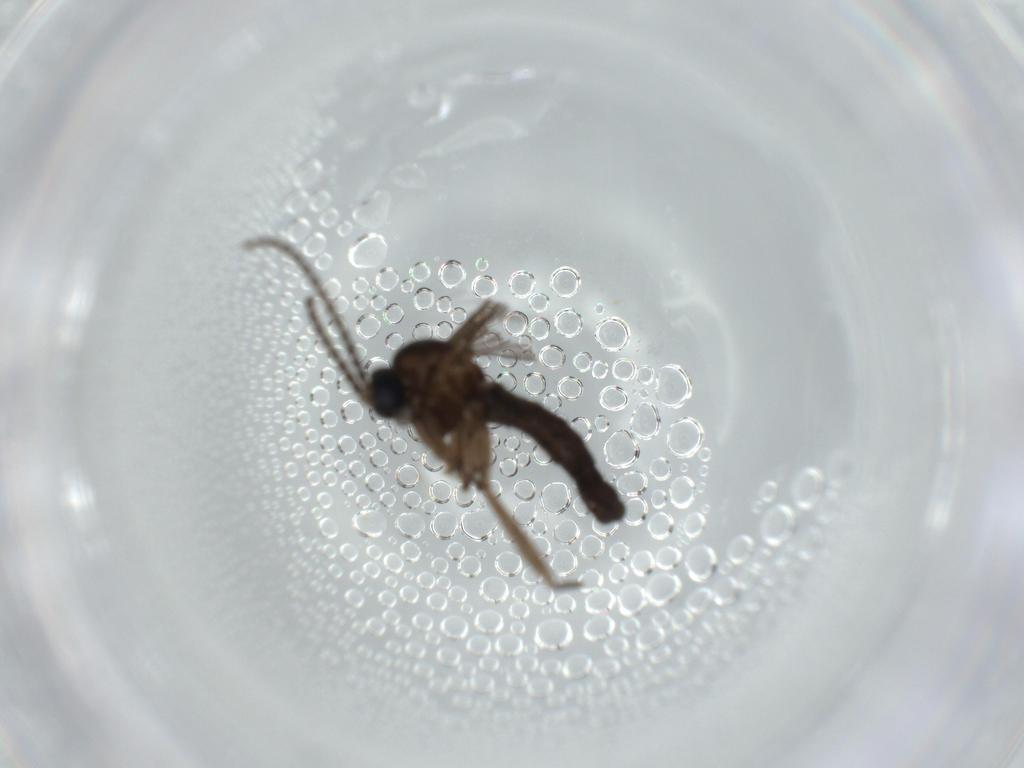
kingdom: Animalia
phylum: Arthropoda
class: Insecta
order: Diptera
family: Sciaridae
